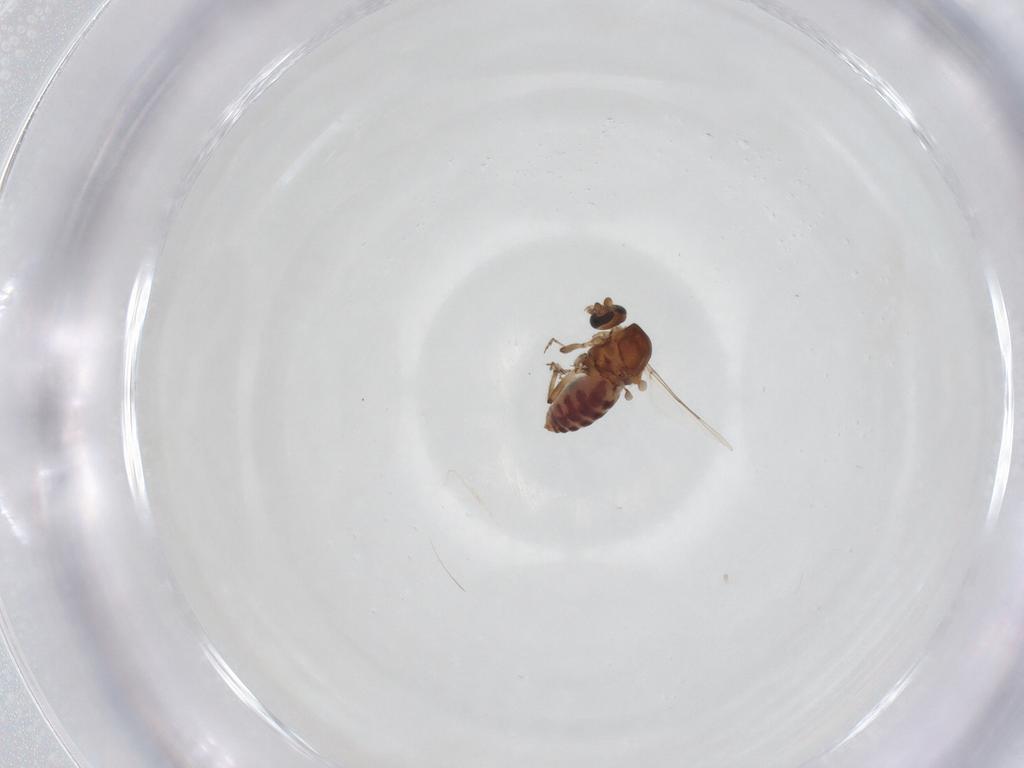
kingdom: Animalia
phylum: Arthropoda
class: Insecta
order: Diptera
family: Ceratopogonidae
